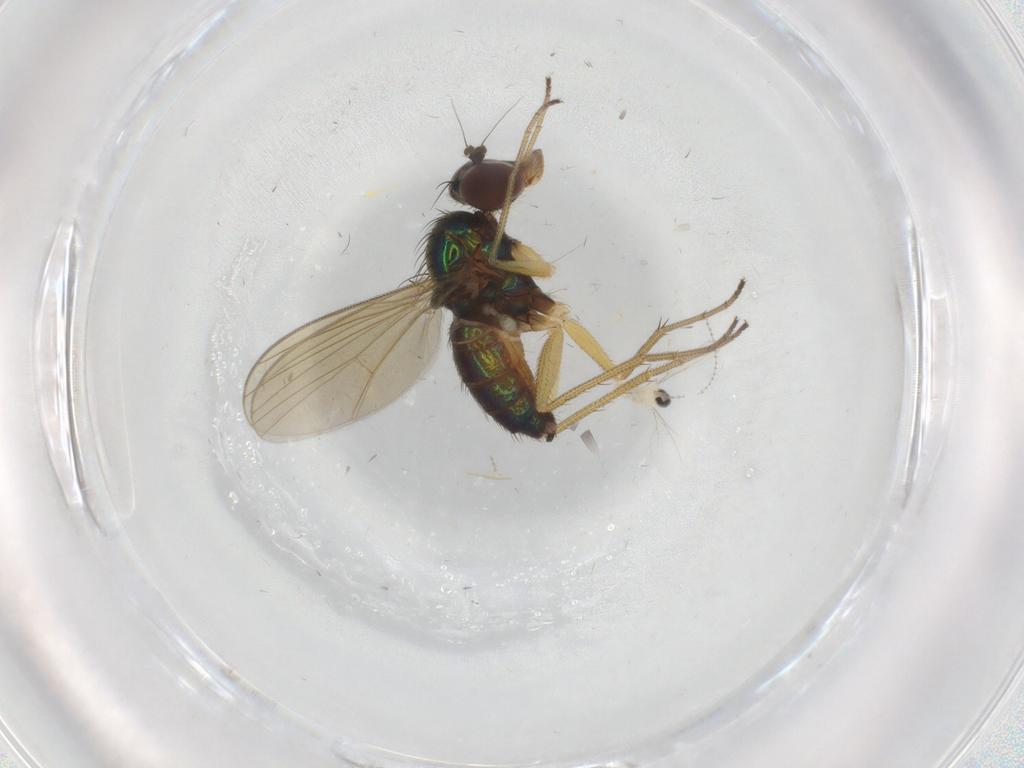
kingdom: Animalia
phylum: Arthropoda
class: Insecta
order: Diptera
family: Dolichopodidae
